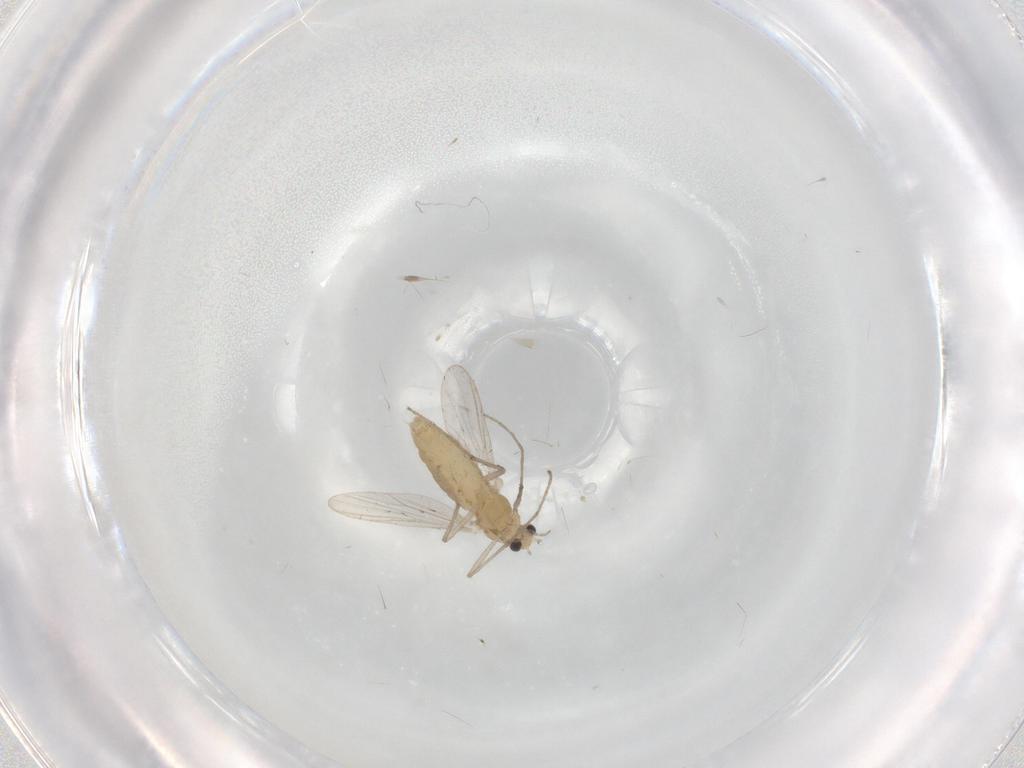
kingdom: Animalia
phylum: Arthropoda
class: Insecta
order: Diptera
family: Chironomidae
